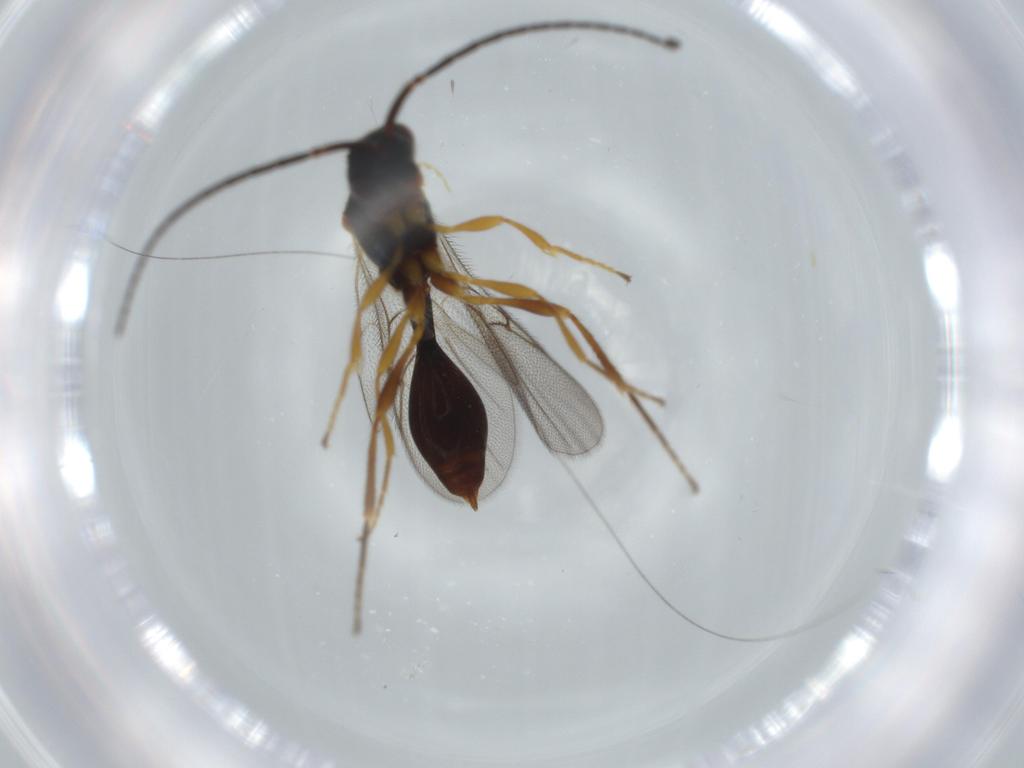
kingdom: Animalia
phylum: Arthropoda
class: Insecta
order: Hymenoptera
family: Diapriidae
